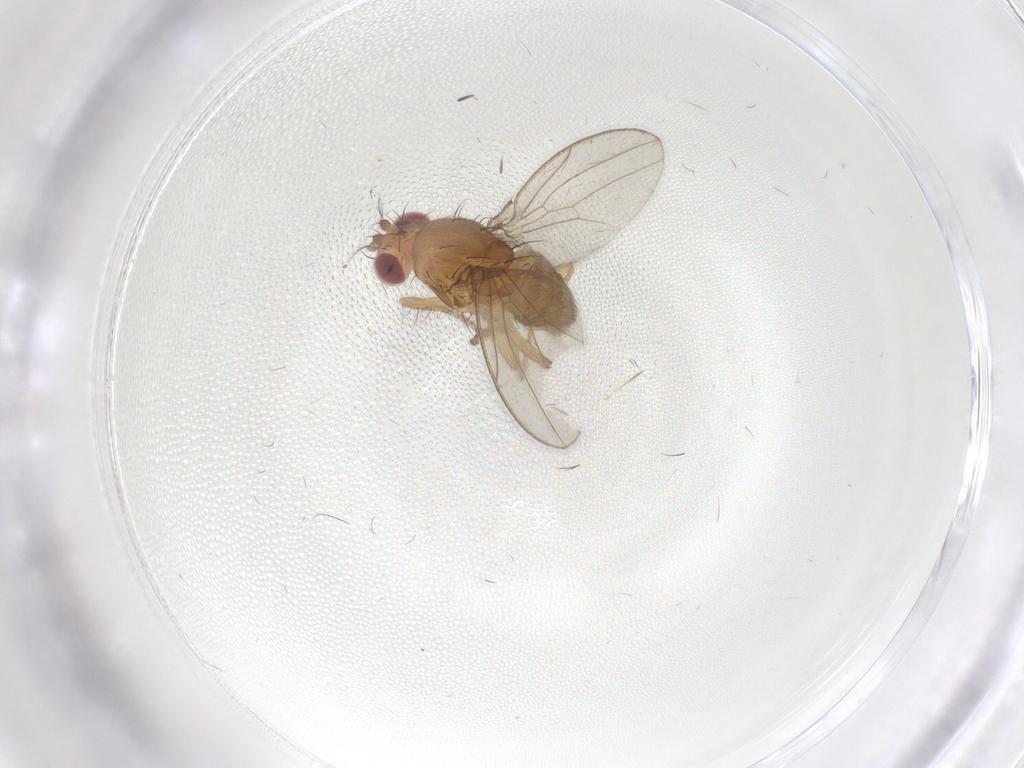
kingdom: Animalia
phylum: Arthropoda
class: Insecta
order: Diptera
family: Drosophilidae
